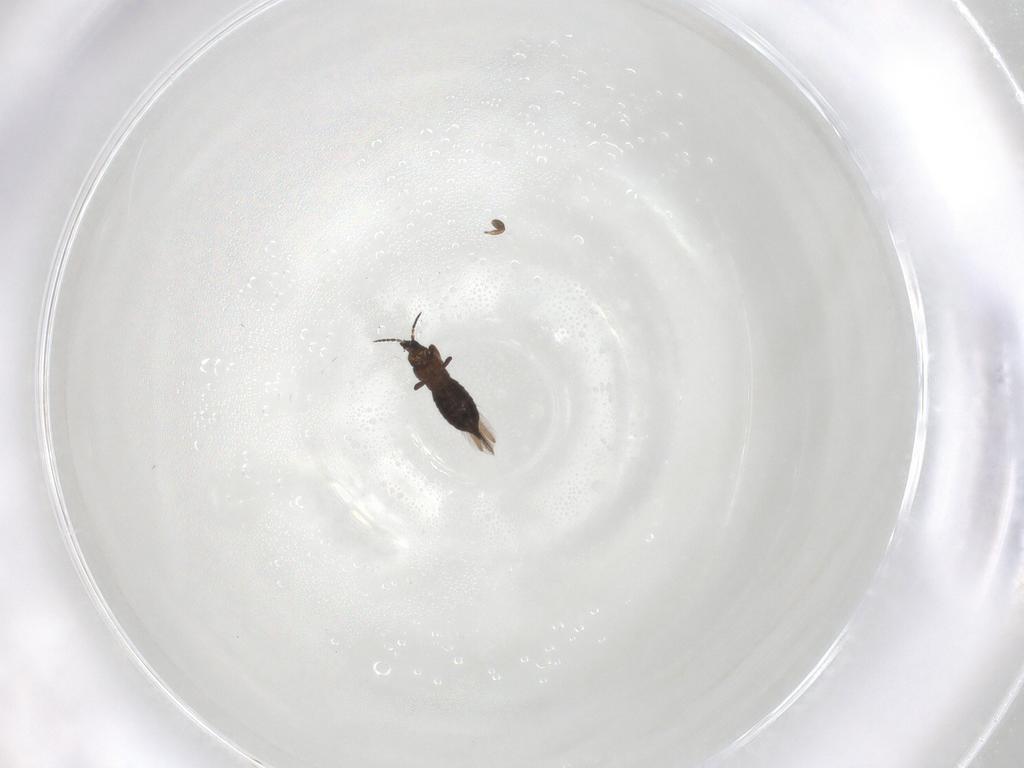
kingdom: Animalia
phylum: Arthropoda
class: Insecta
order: Thysanoptera
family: Heterothripidae
